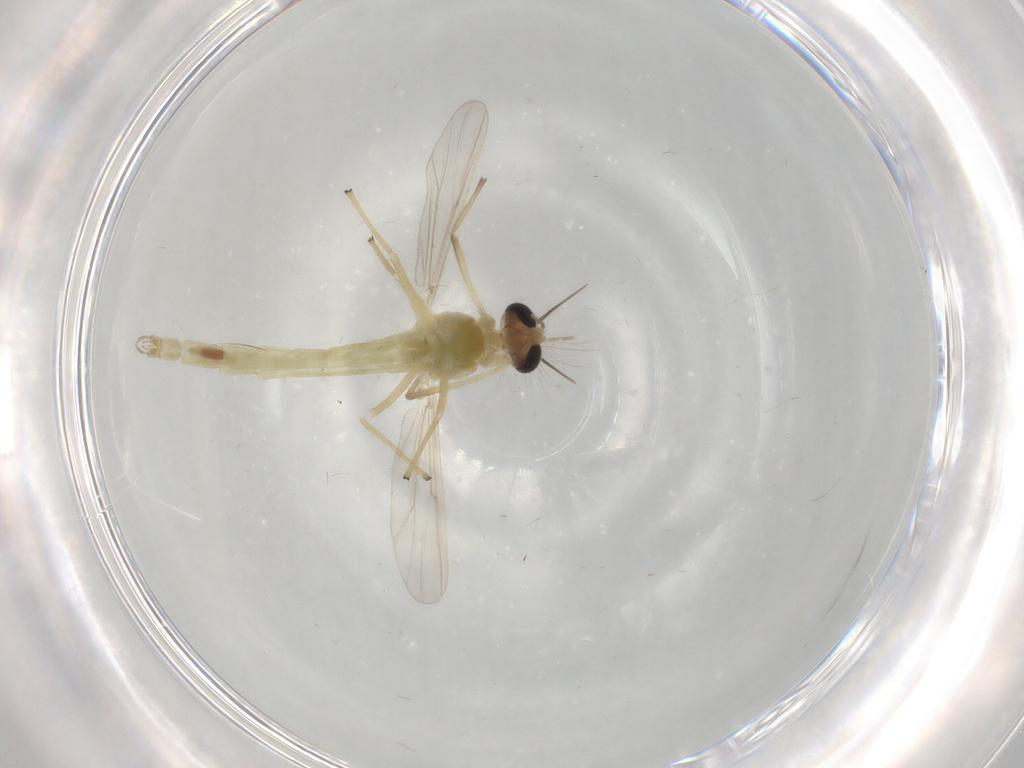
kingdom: Animalia
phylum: Arthropoda
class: Insecta
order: Diptera
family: Chironomidae
